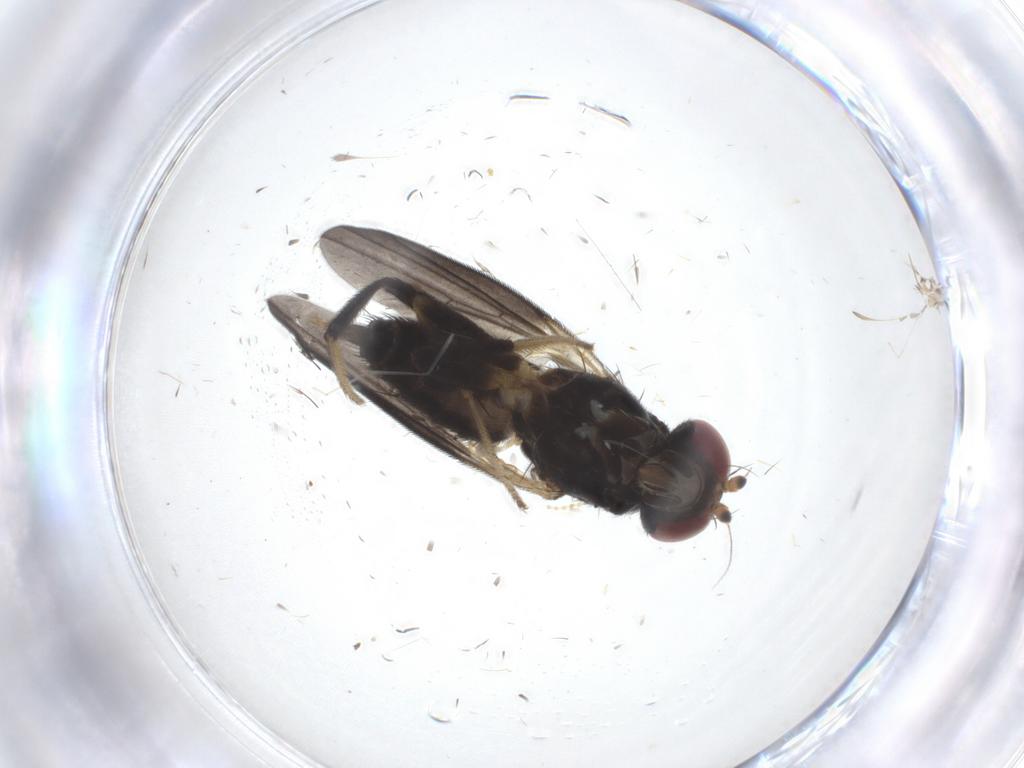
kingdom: Animalia
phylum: Arthropoda
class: Insecta
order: Diptera
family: Clusiidae
